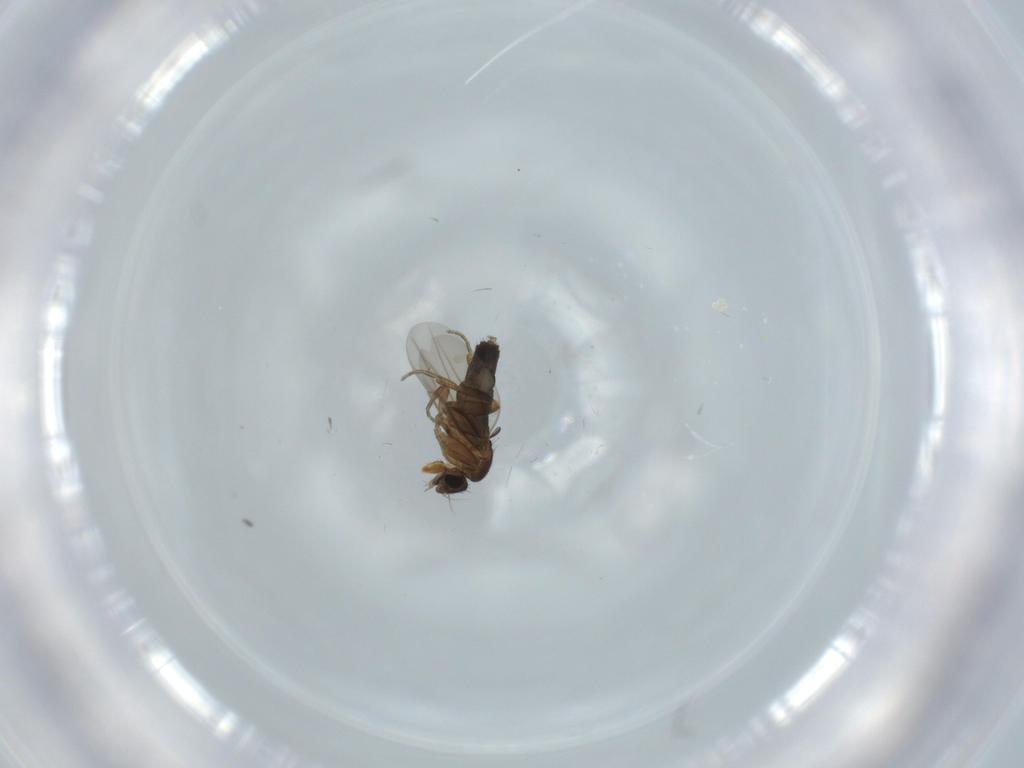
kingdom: Animalia
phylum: Arthropoda
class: Insecta
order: Diptera
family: Phoridae
